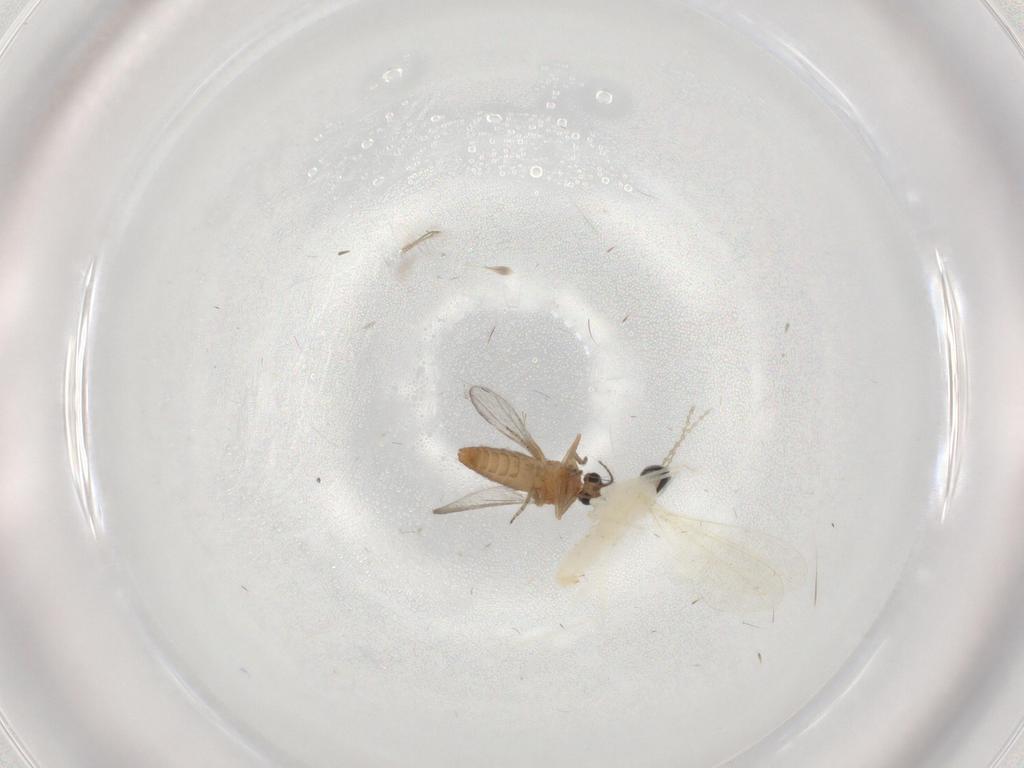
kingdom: Animalia
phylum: Arthropoda
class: Insecta
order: Diptera
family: Ceratopogonidae
